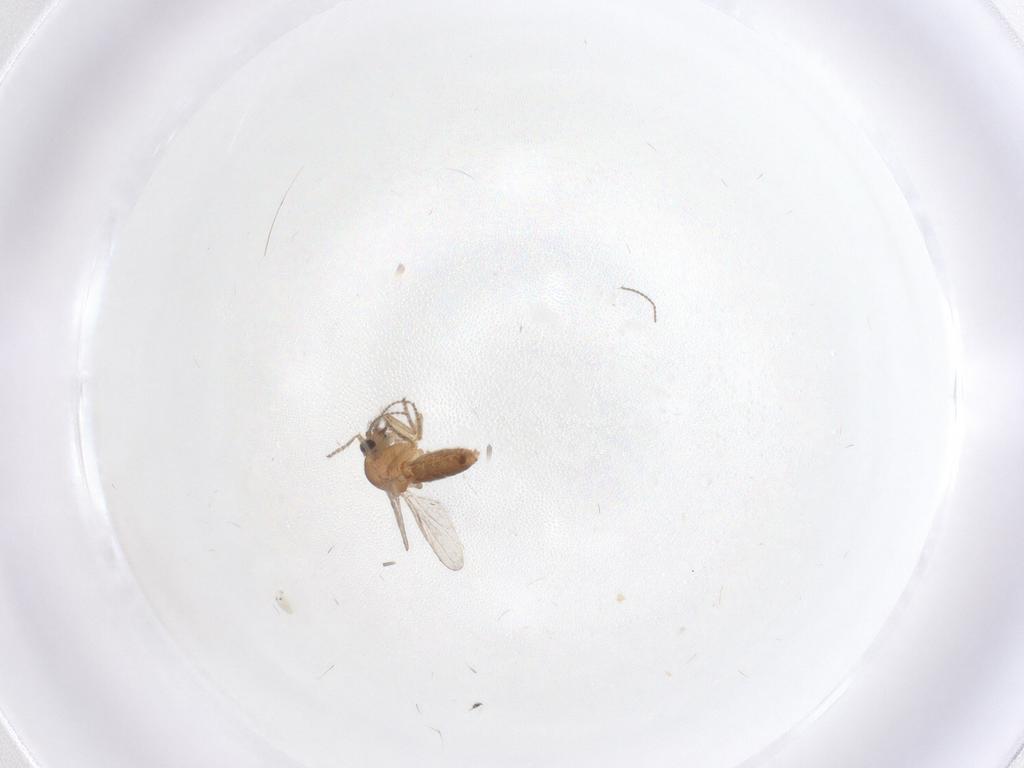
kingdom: Animalia
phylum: Arthropoda
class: Insecta
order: Diptera
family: Ceratopogonidae
